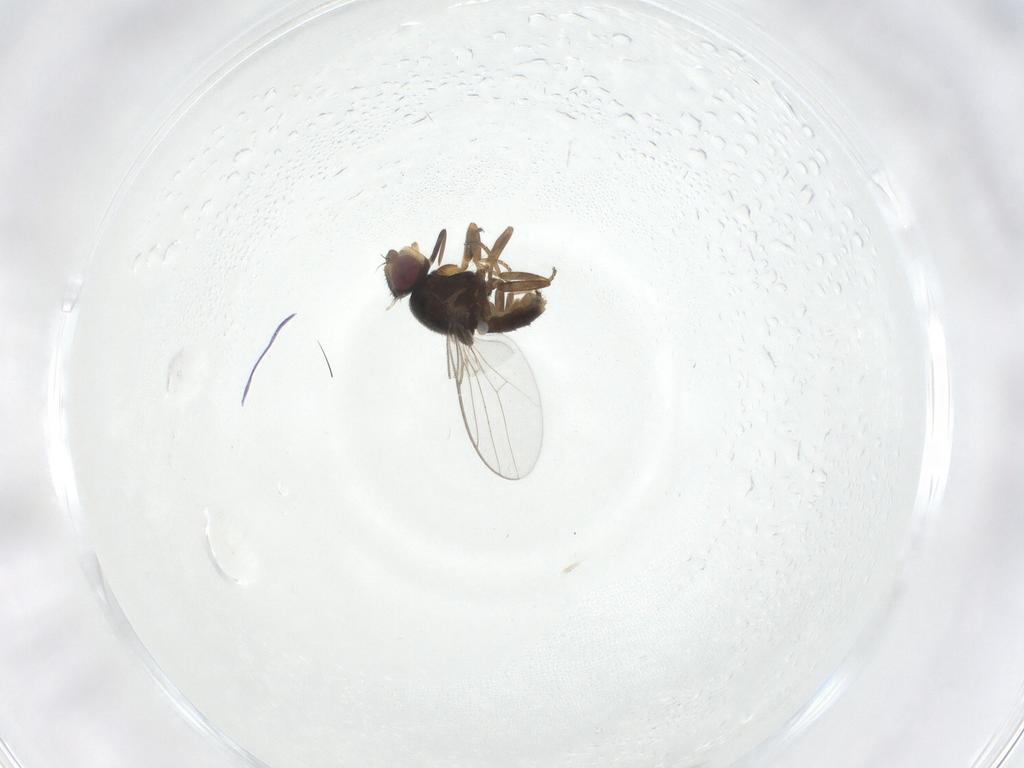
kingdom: Animalia
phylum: Arthropoda
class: Insecta
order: Diptera
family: Chloropidae
